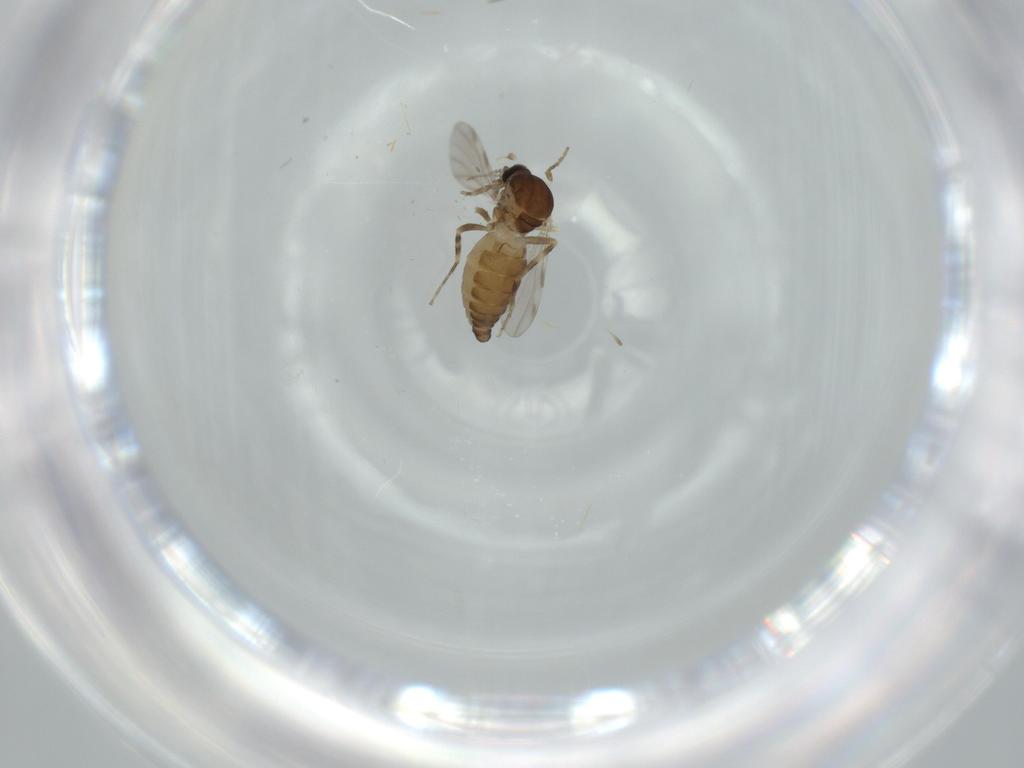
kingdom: Animalia
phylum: Arthropoda
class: Insecta
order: Diptera
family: Ceratopogonidae
